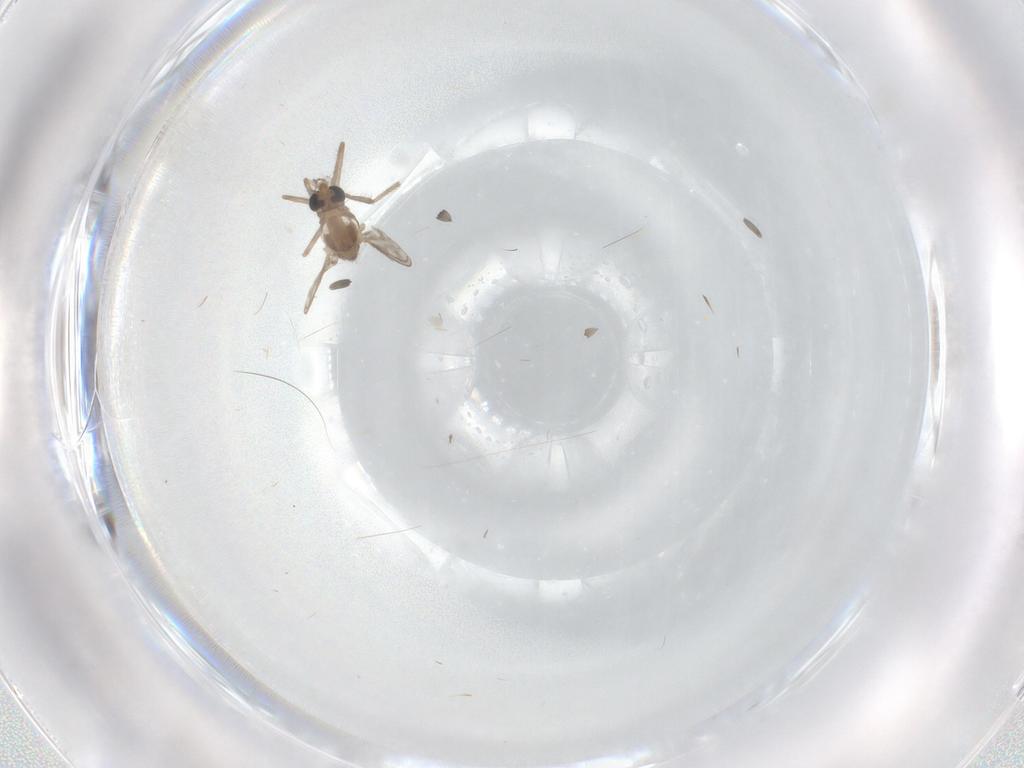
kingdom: Animalia
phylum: Arthropoda
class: Insecta
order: Diptera
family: Chironomidae
